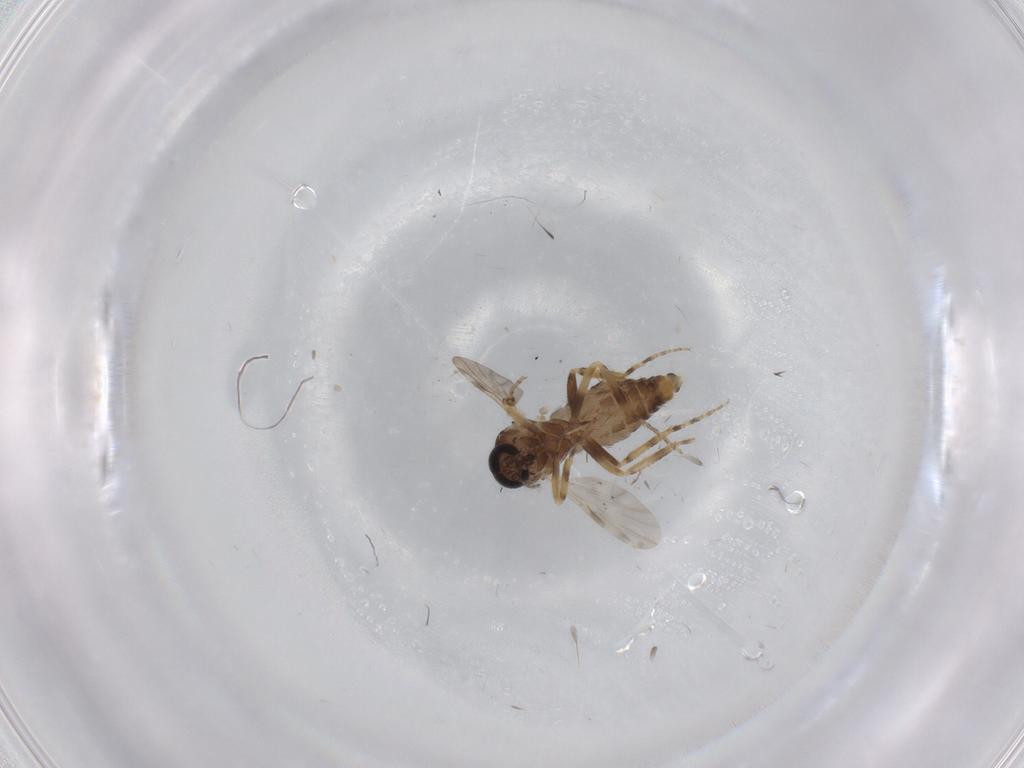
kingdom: Animalia
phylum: Arthropoda
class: Insecta
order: Diptera
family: Ceratopogonidae
